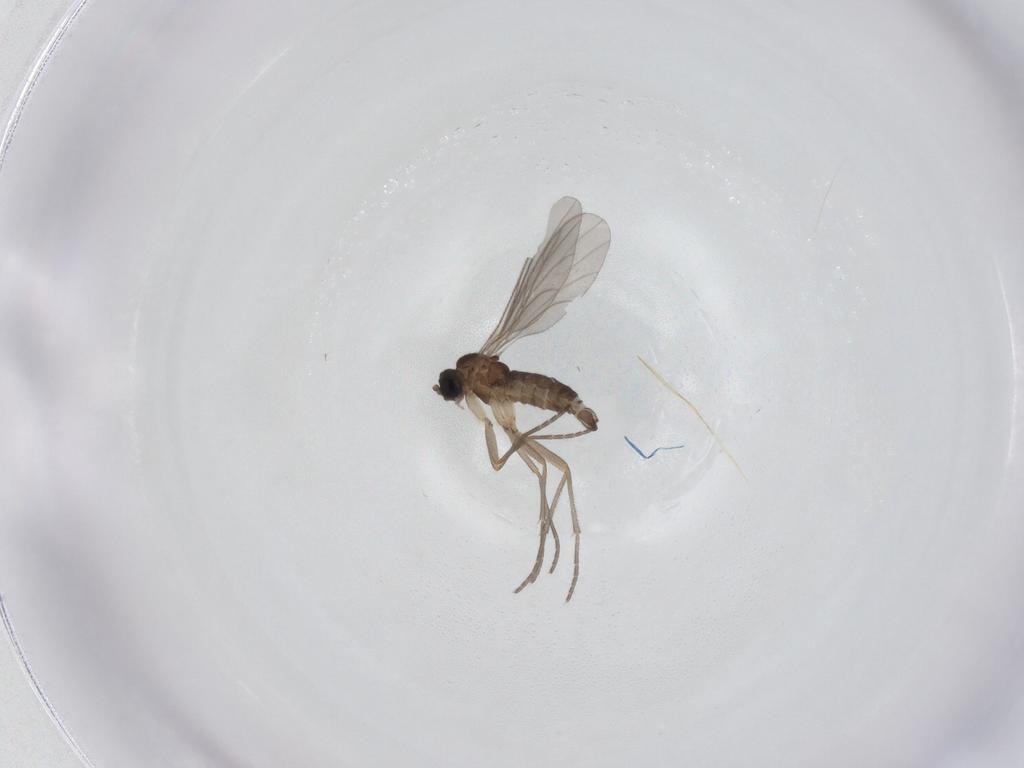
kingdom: Animalia
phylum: Arthropoda
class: Insecta
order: Diptera
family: Sciaridae
